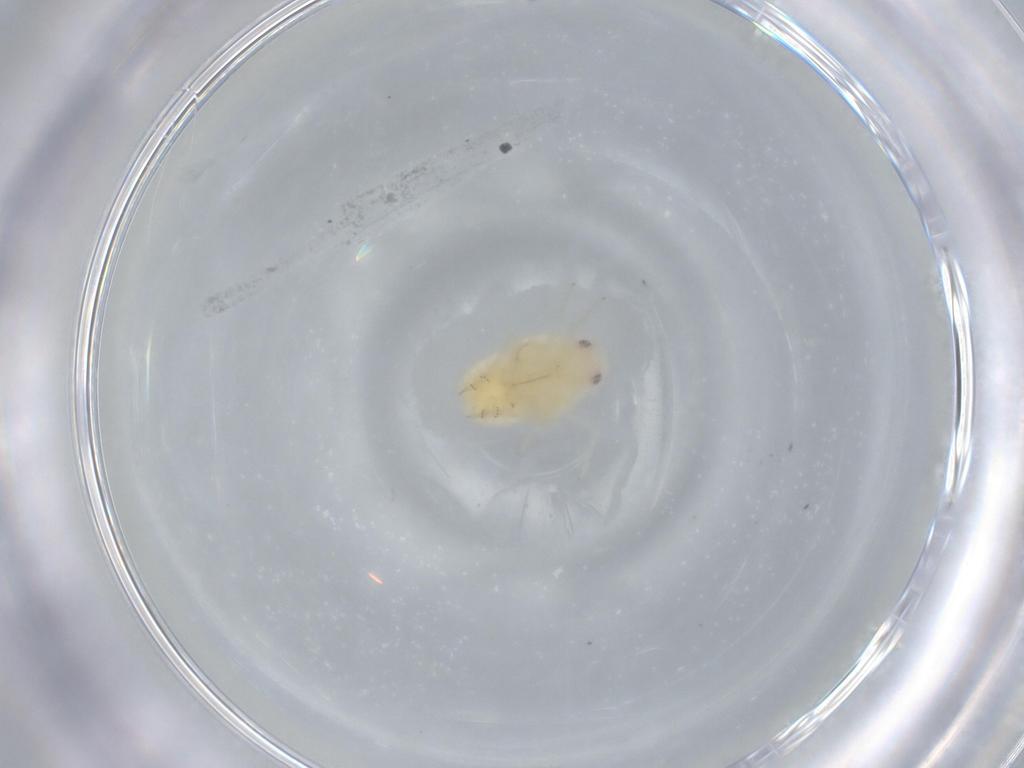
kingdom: Animalia
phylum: Arthropoda
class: Insecta
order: Hemiptera
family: Flatidae
